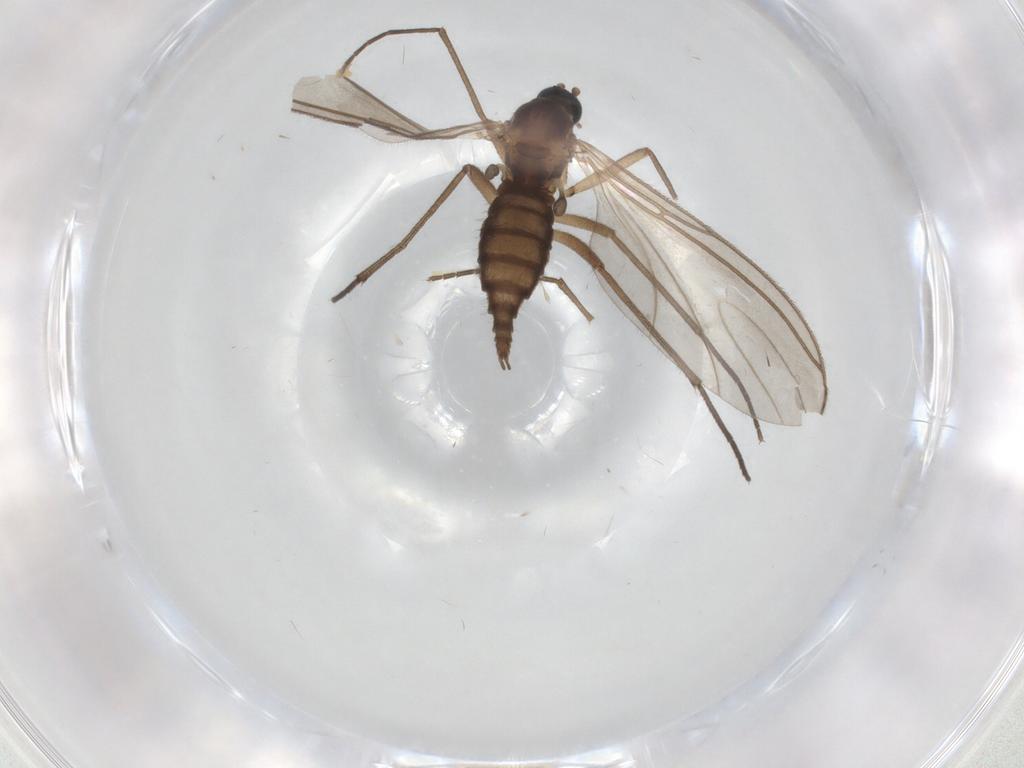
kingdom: Animalia
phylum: Arthropoda
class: Insecta
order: Diptera
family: Sciaridae
